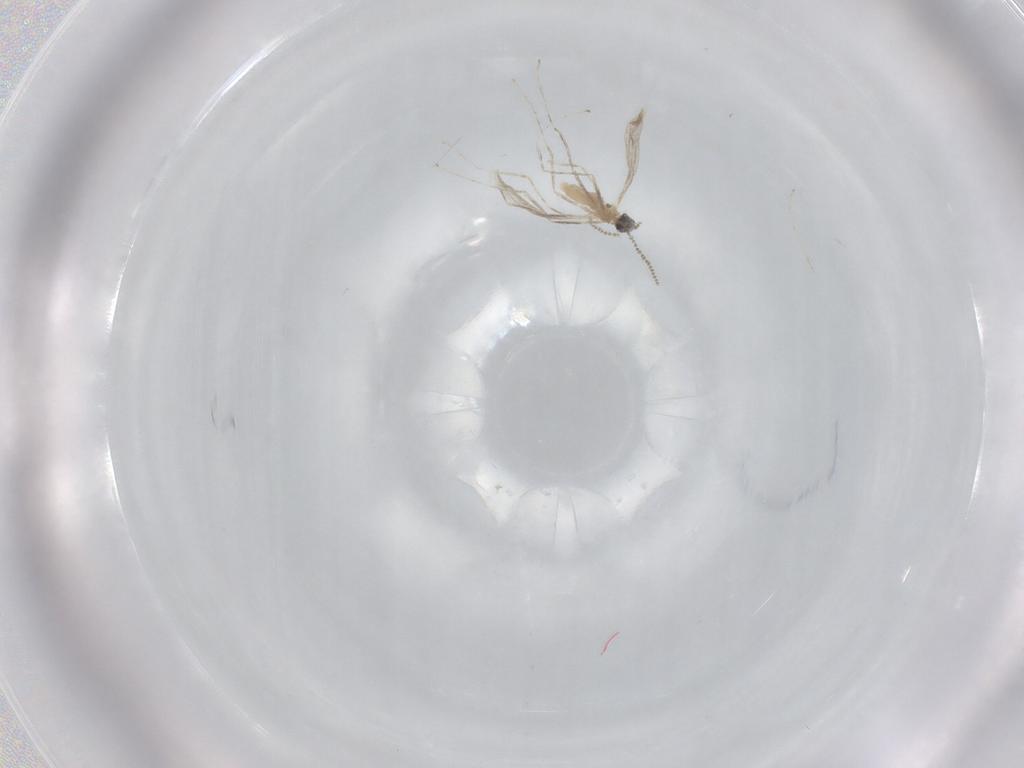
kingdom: Animalia
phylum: Arthropoda
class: Insecta
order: Diptera
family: Cecidomyiidae
